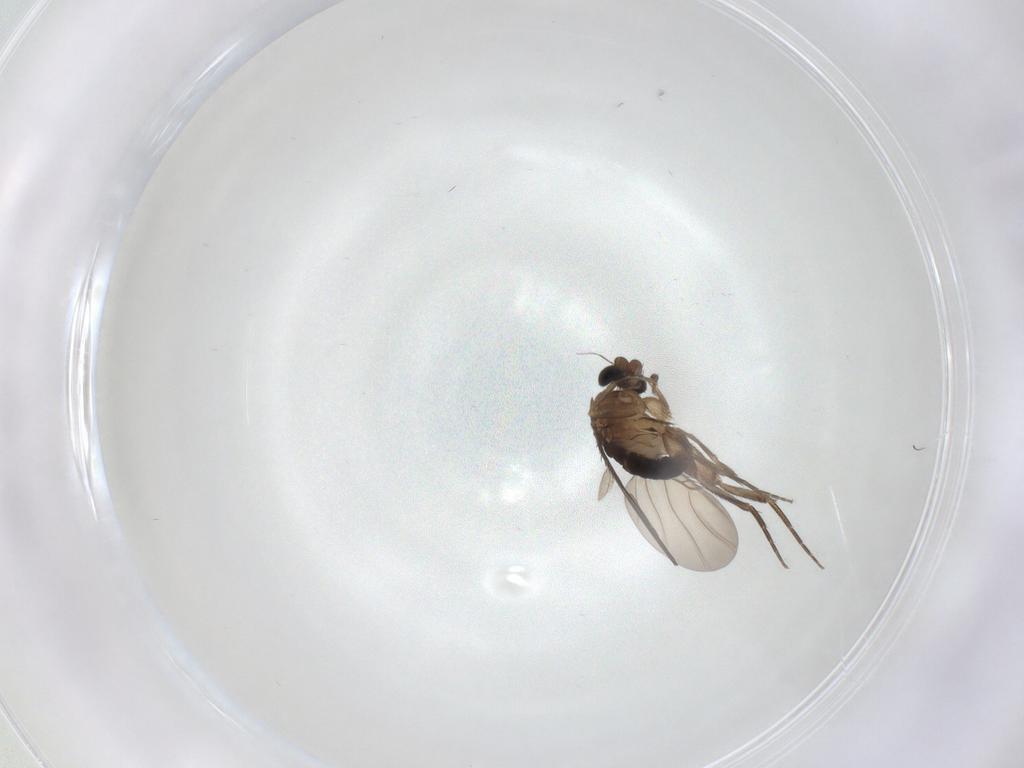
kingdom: Animalia
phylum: Arthropoda
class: Insecta
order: Diptera
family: Phoridae
